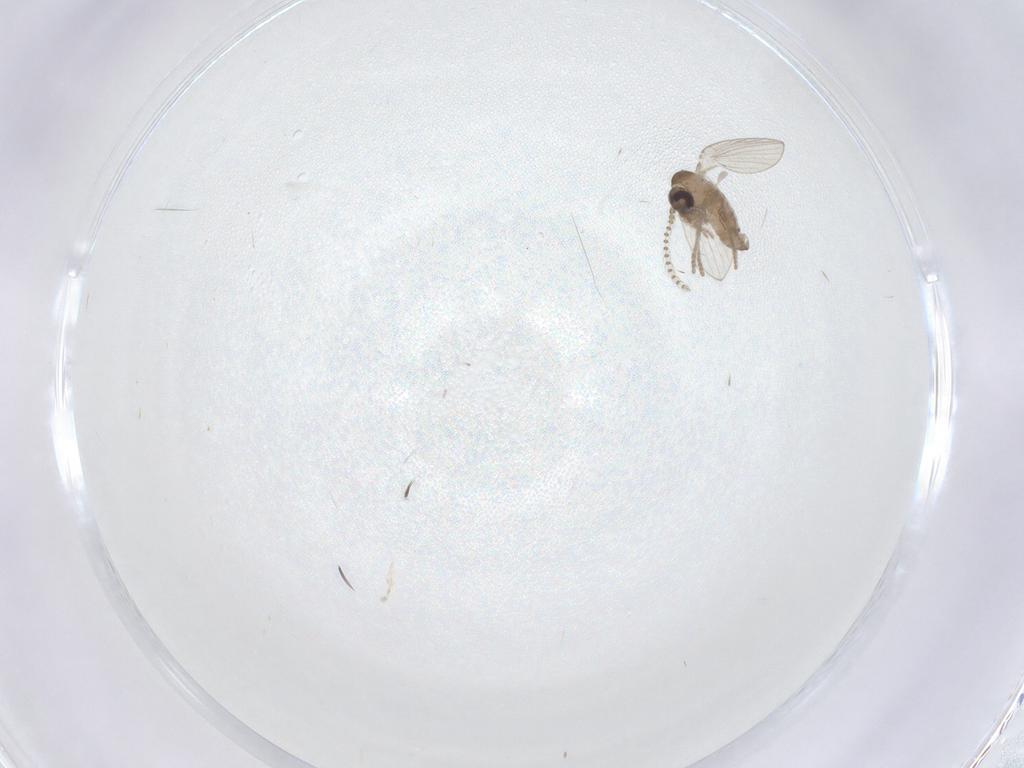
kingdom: Animalia
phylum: Arthropoda
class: Insecta
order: Diptera
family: Psychodidae
